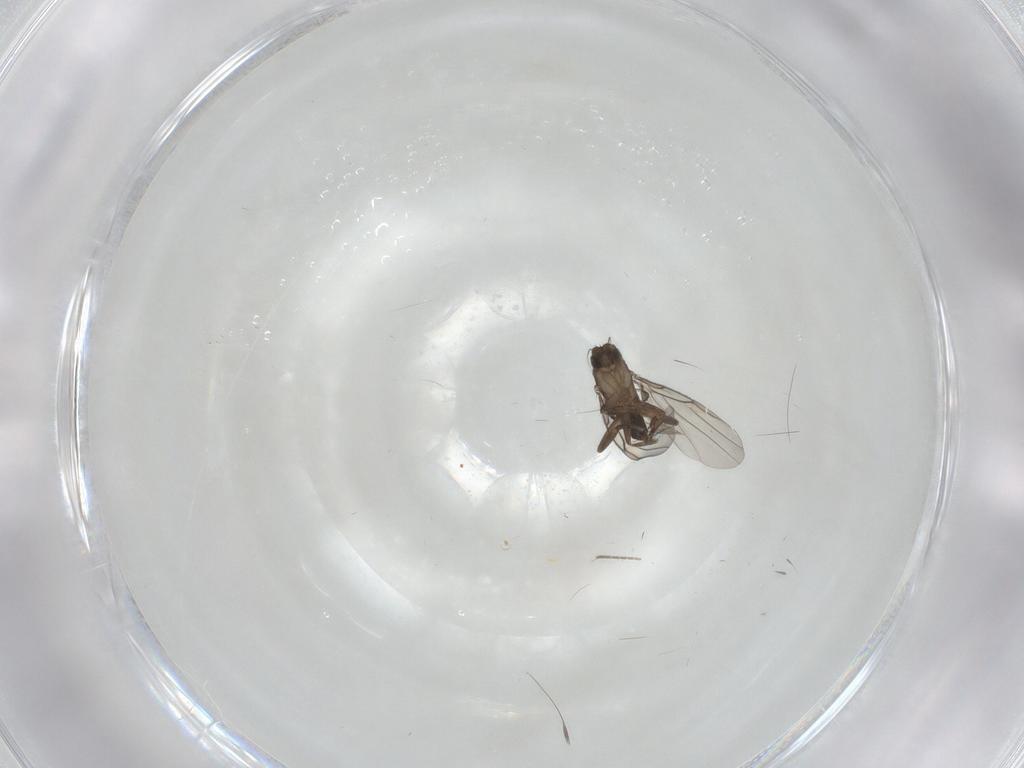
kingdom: Animalia
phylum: Arthropoda
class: Insecta
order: Diptera
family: Chironomidae
